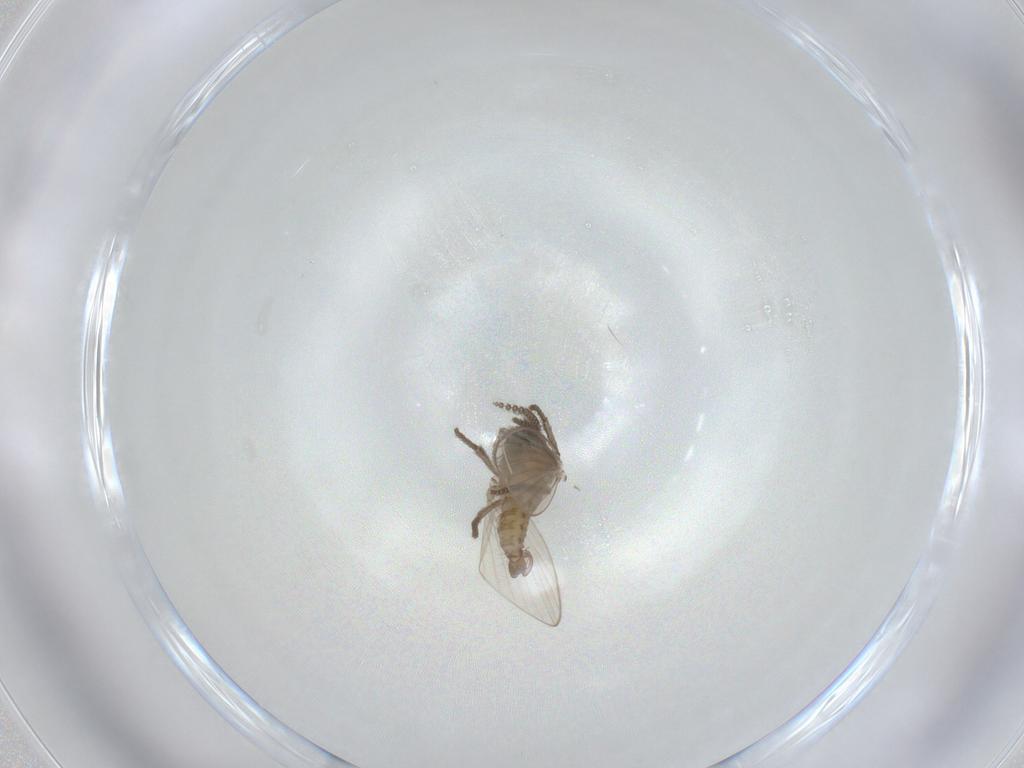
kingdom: Animalia
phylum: Arthropoda
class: Insecta
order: Diptera
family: Psychodidae
